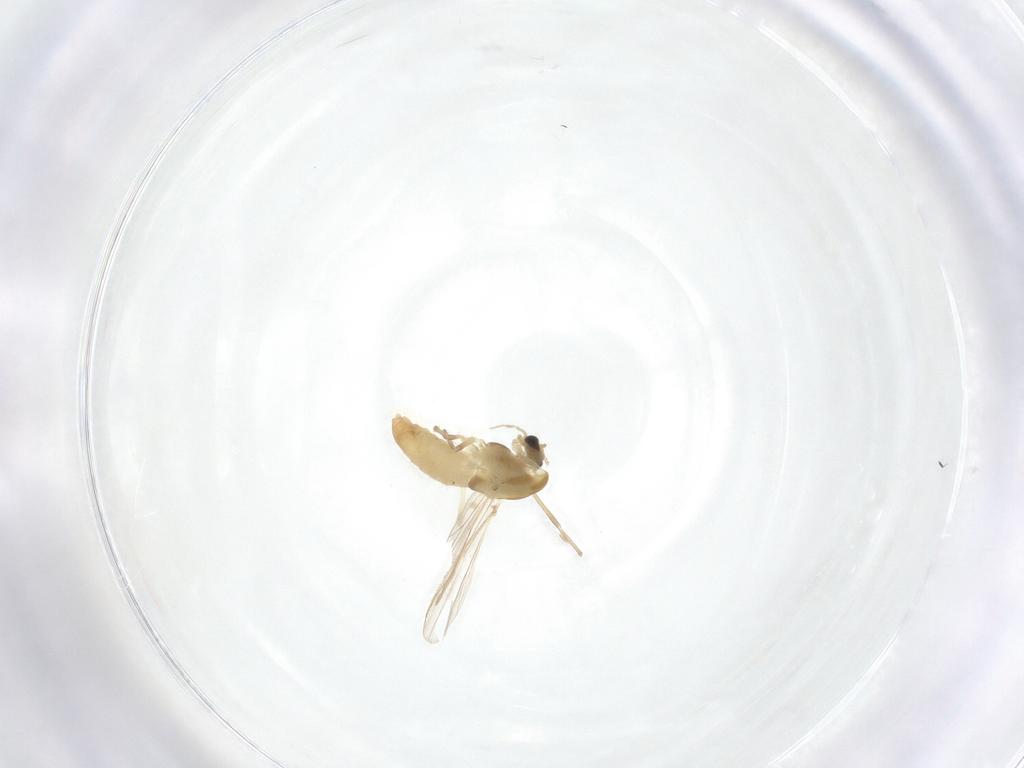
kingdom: Animalia
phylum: Arthropoda
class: Insecta
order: Diptera
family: Chironomidae
